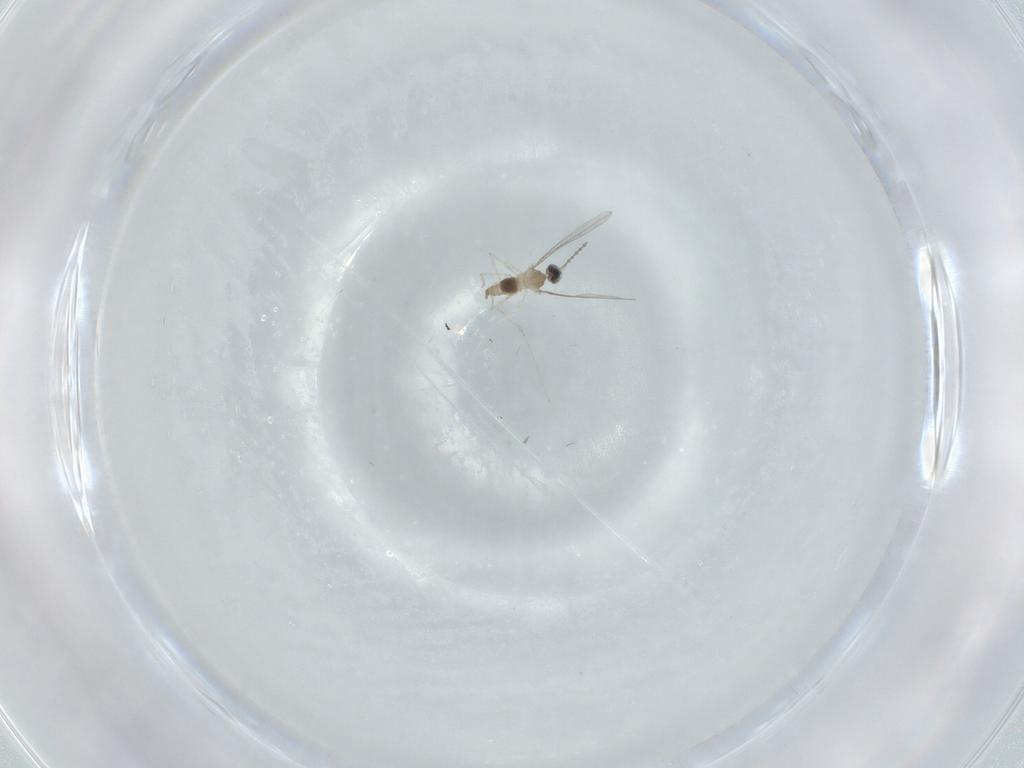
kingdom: Animalia
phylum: Arthropoda
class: Insecta
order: Diptera
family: Cecidomyiidae
